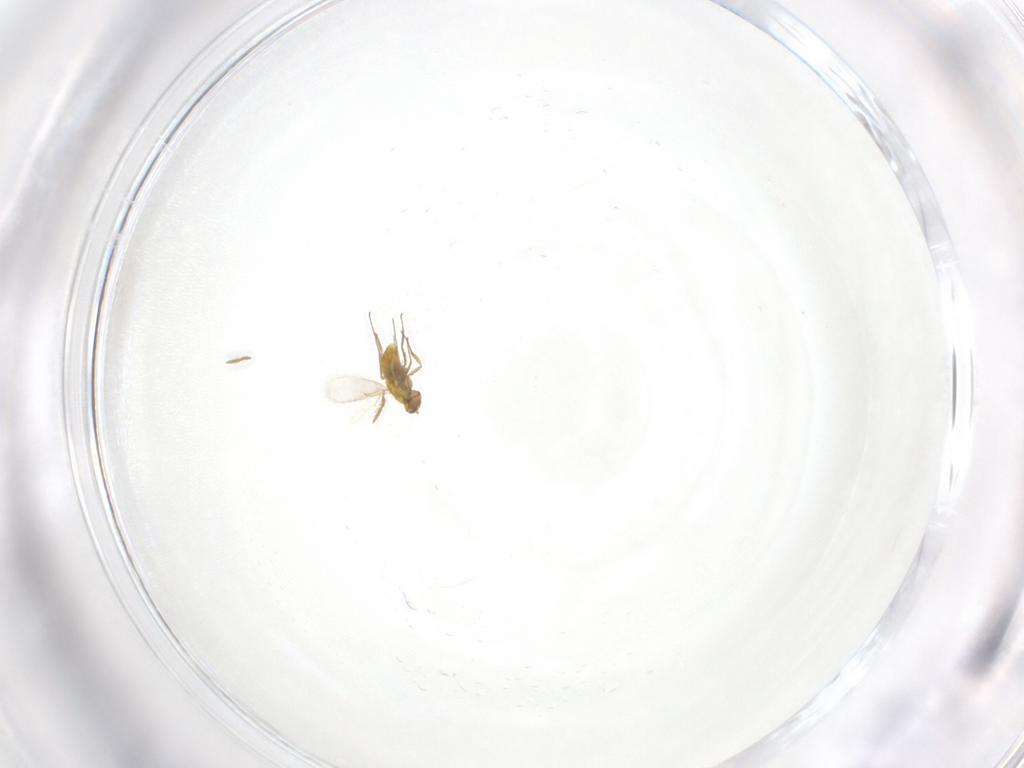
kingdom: Animalia
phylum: Arthropoda
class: Insecta
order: Hymenoptera
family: Aphelinidae
